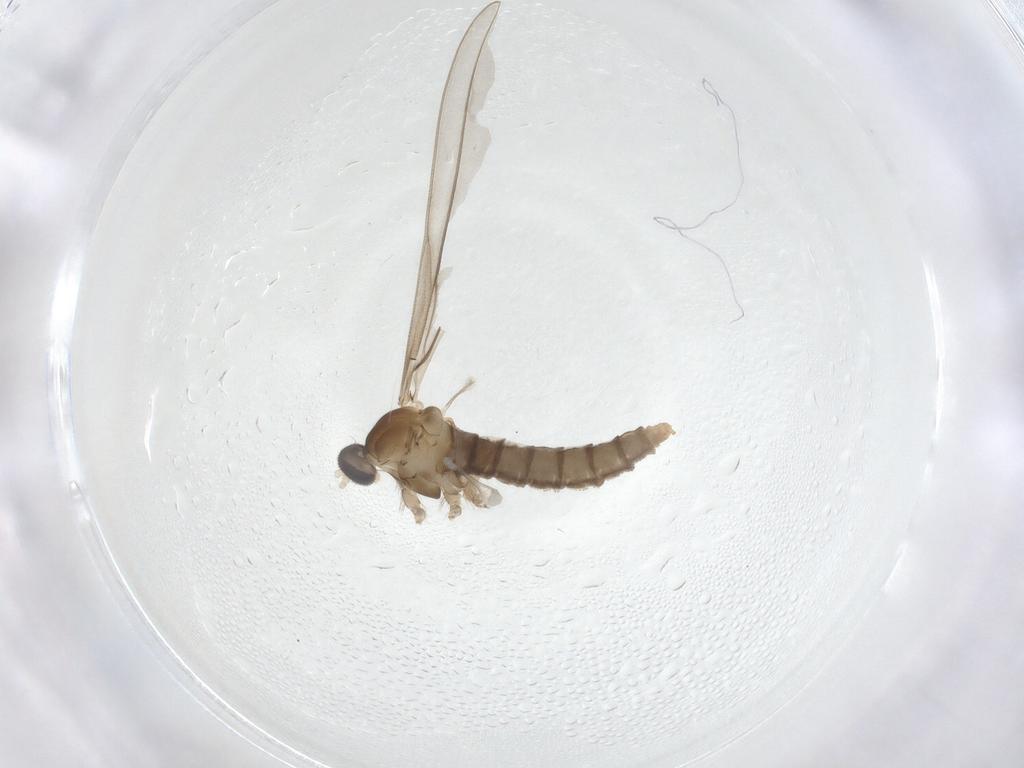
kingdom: Animalia
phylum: Arthropoda
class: Insecta
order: Diptera
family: Cecidomyiidae
